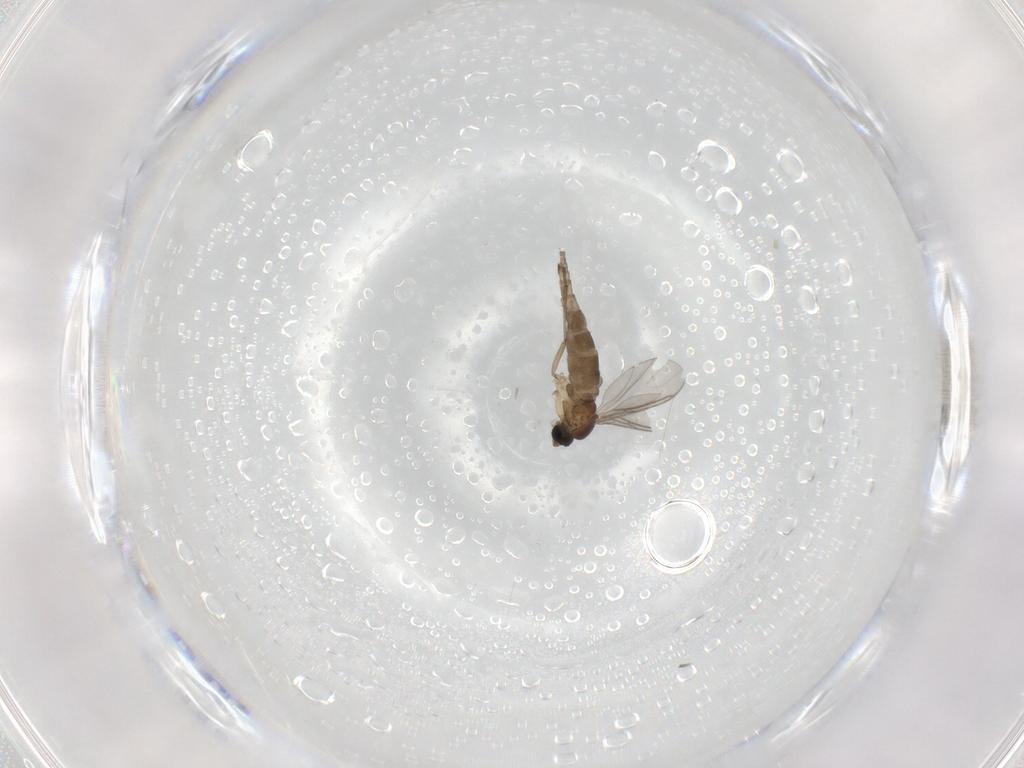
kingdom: Animalia
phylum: Arthropoda
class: Insecta
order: Diptera
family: Sciaridae
